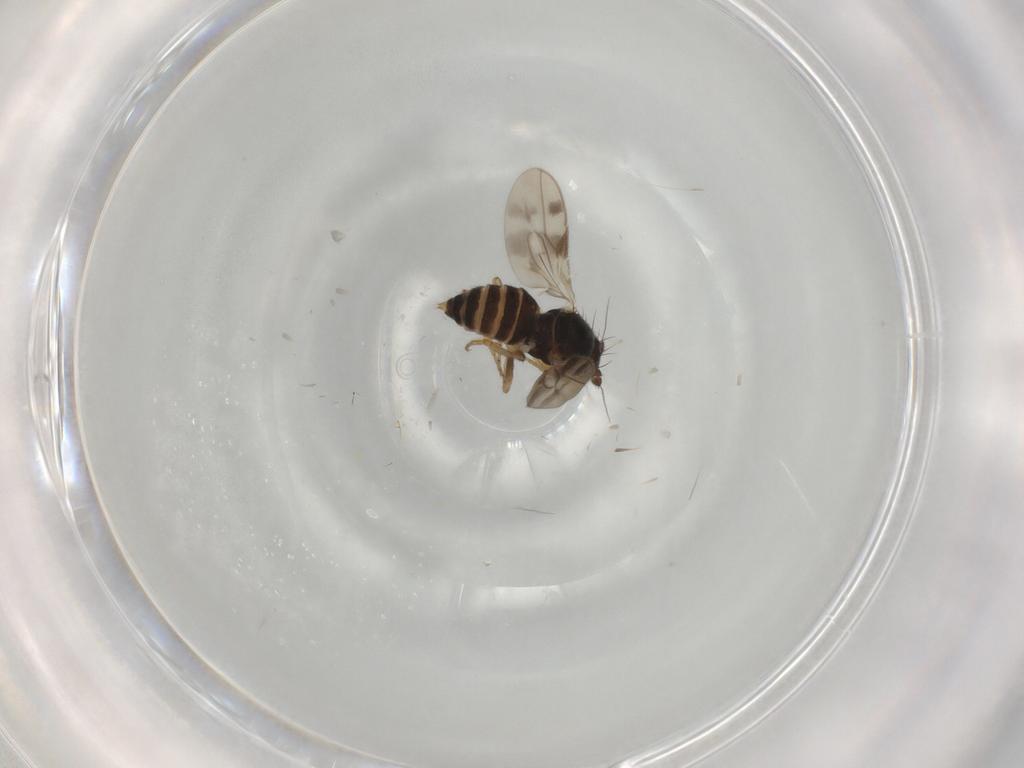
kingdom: Animalia
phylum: Arthropoda
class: Insecta
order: Diptera
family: Sphaeroceridae
